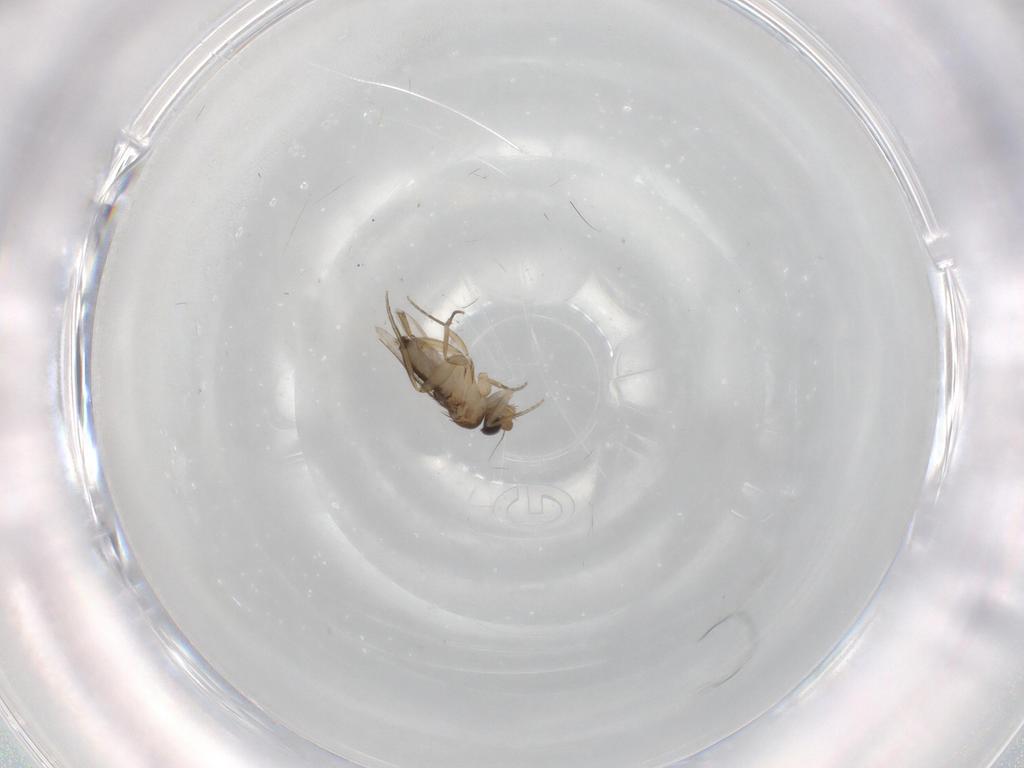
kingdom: Animalia
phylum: Arthropoda
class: Insecta
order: Diptera
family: Phoridae
